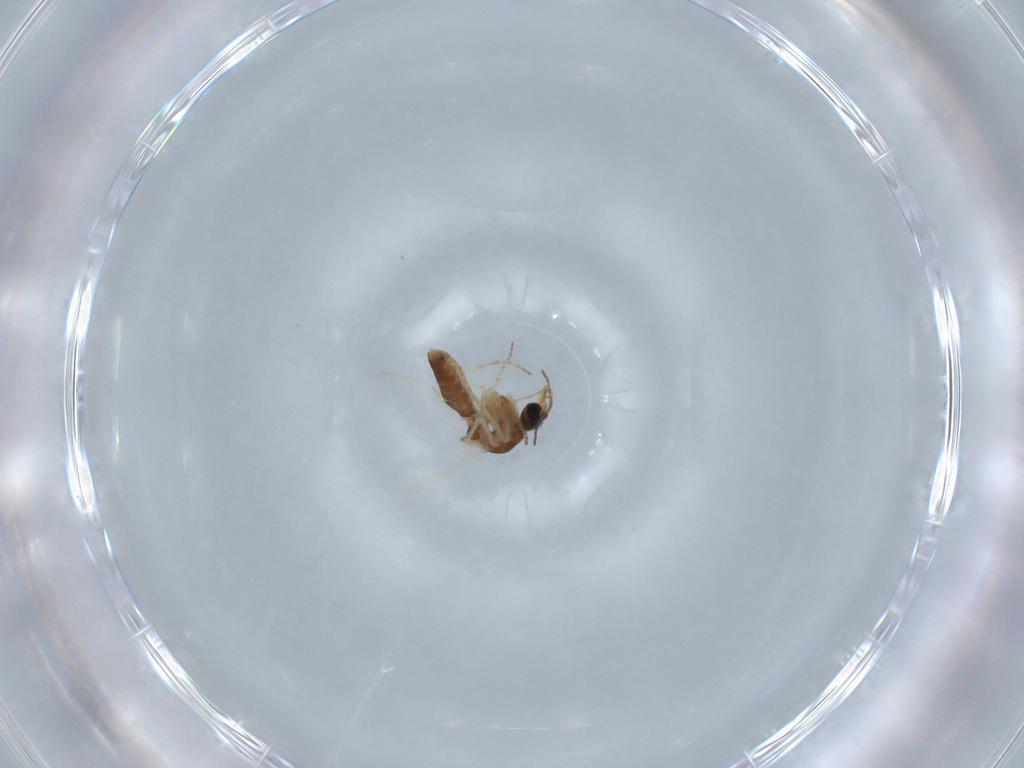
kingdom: Animalia
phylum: Arthropoda
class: Insecta
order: Diptera
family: Ceratopogonidae
